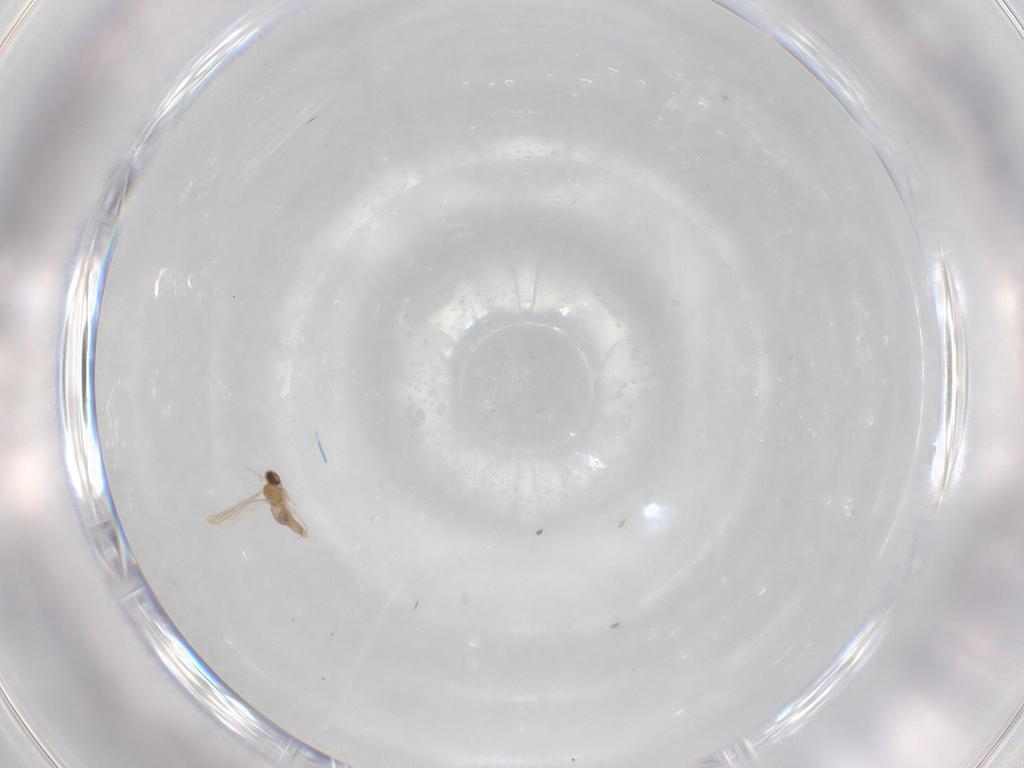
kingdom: Animalia
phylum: Arthropoda
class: Insecta
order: Diptera
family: Cecidomyiidae
